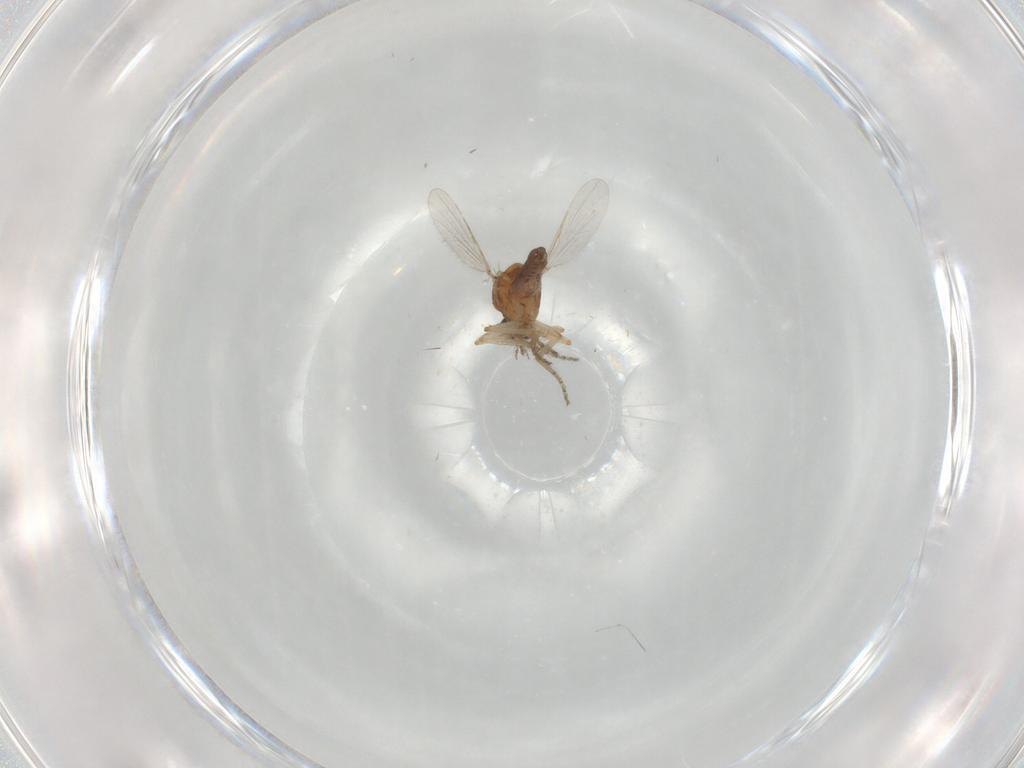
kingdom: Animalia
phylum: Arthropoda
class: Insecta
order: Diptera
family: Ceratopogonidae
